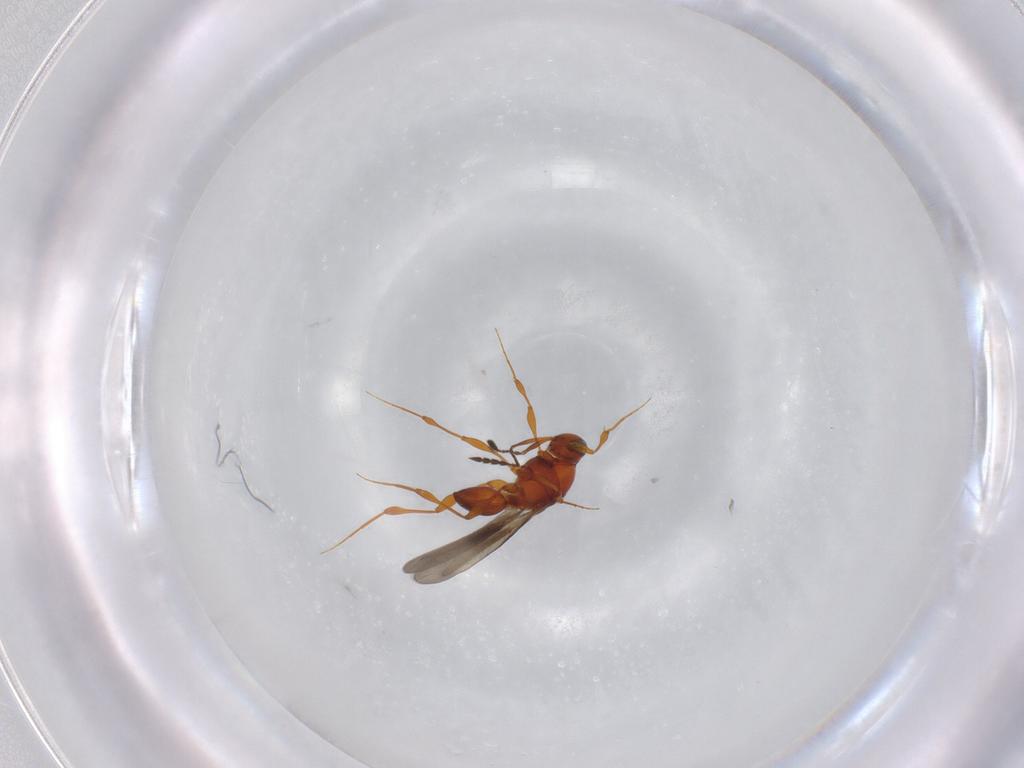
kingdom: Animalia
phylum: Arthropoda
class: Insecta
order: Hymenoptera
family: Platygastridae
